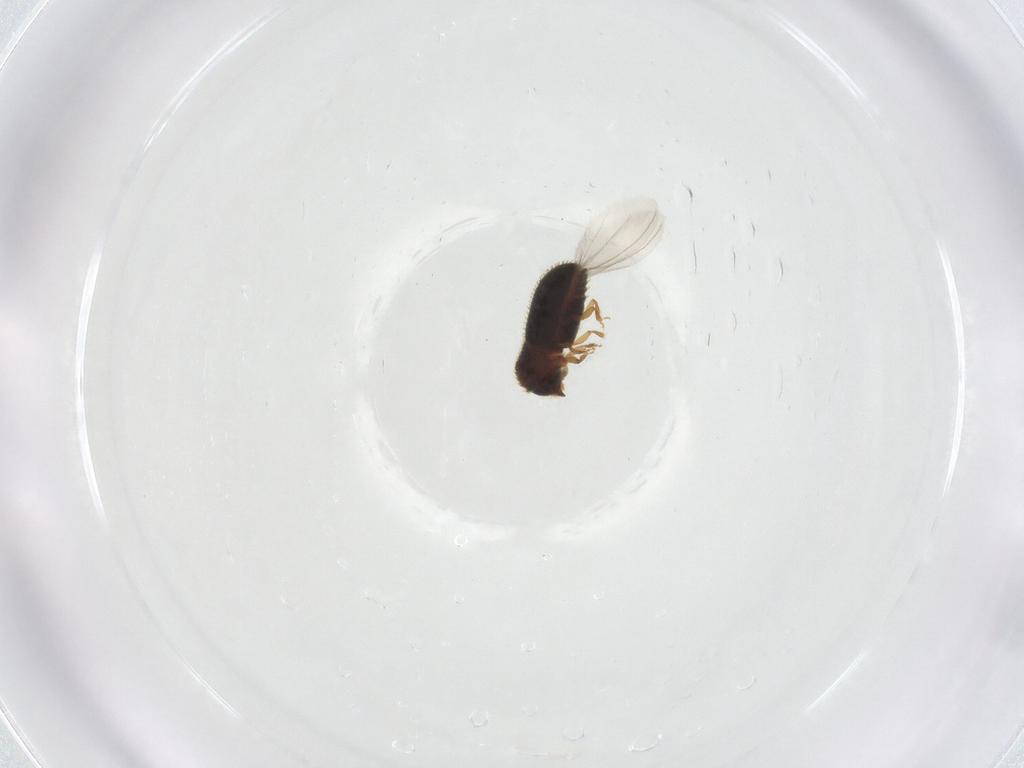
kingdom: Animalia
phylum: Arthropoda
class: Insecta
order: Coleoptera
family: Curculionidae
